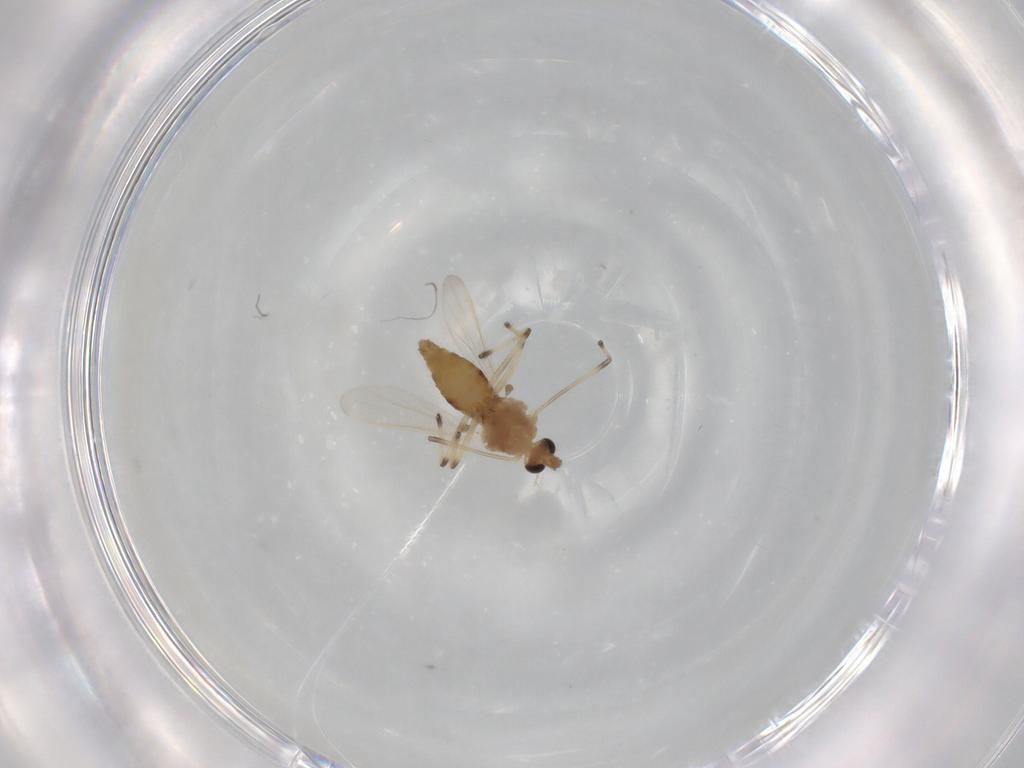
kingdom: Animalia
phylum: Arthropoda
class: Insecta
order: Diptera
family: Chironomidae
